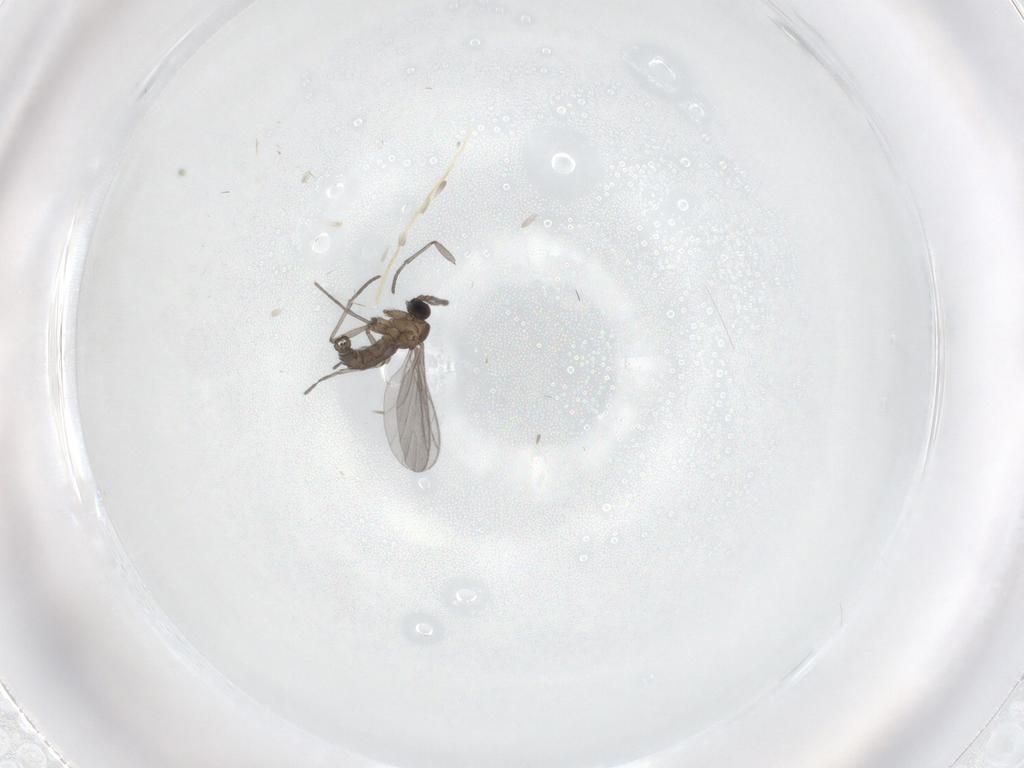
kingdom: Animalia
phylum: Arthropoda
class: Insecta
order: Diptera
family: Sciaridae
